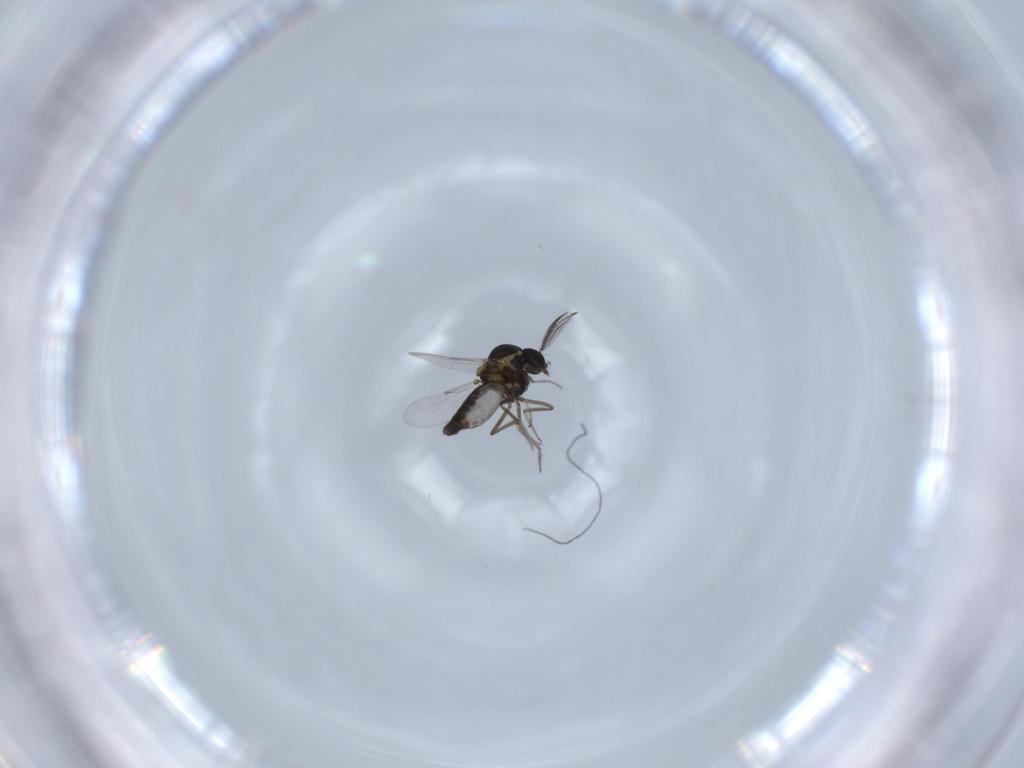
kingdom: Animalia
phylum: Arthropoda
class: Insecta
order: Diptera
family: Ceratopogonidae
